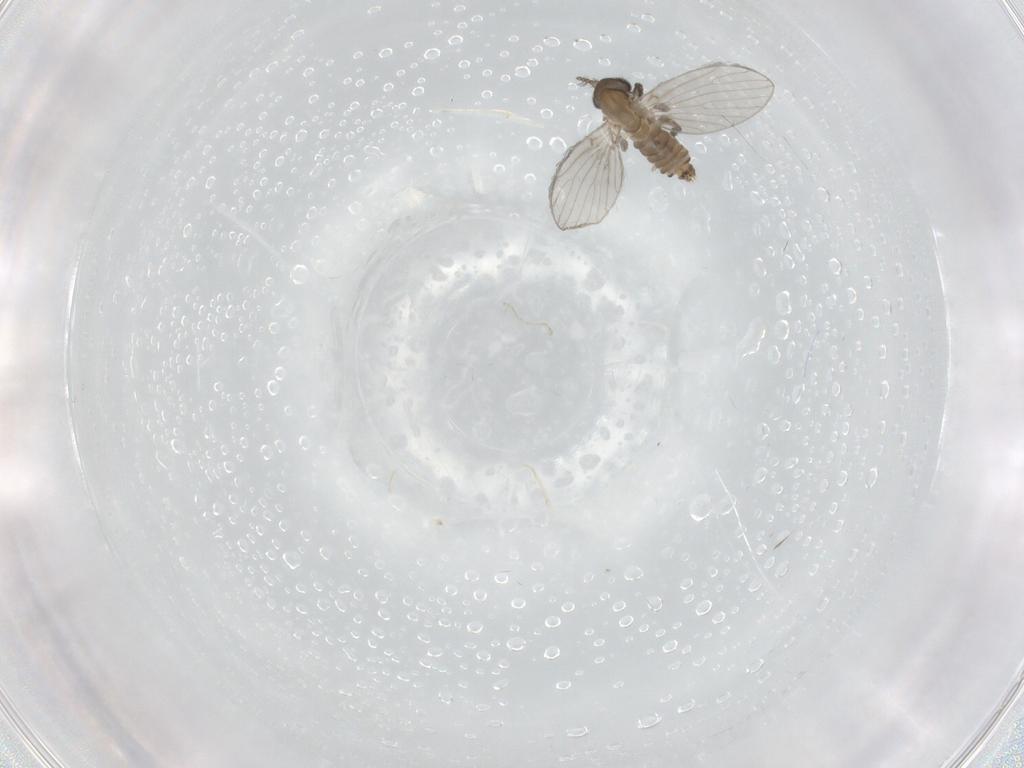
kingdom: Animalia
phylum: Arthropoda
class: Insecta
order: Diptera
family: Psychodidae
